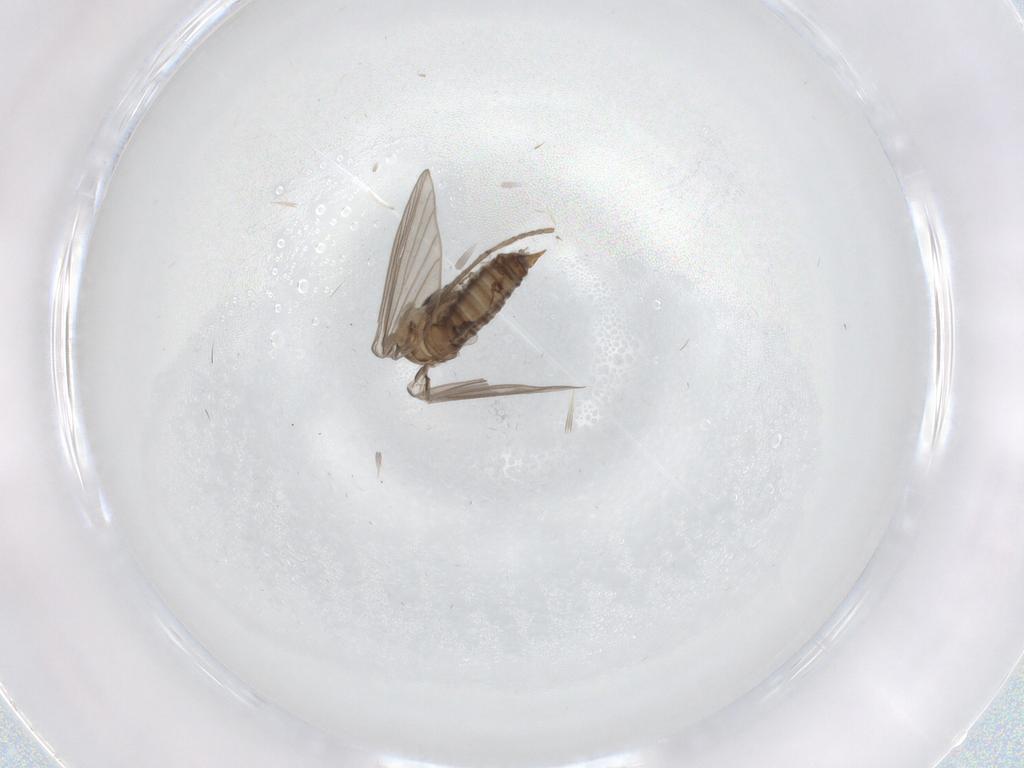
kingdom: Animalia
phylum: Arthropoda
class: Insecta
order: Diptera
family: Psychodidae
